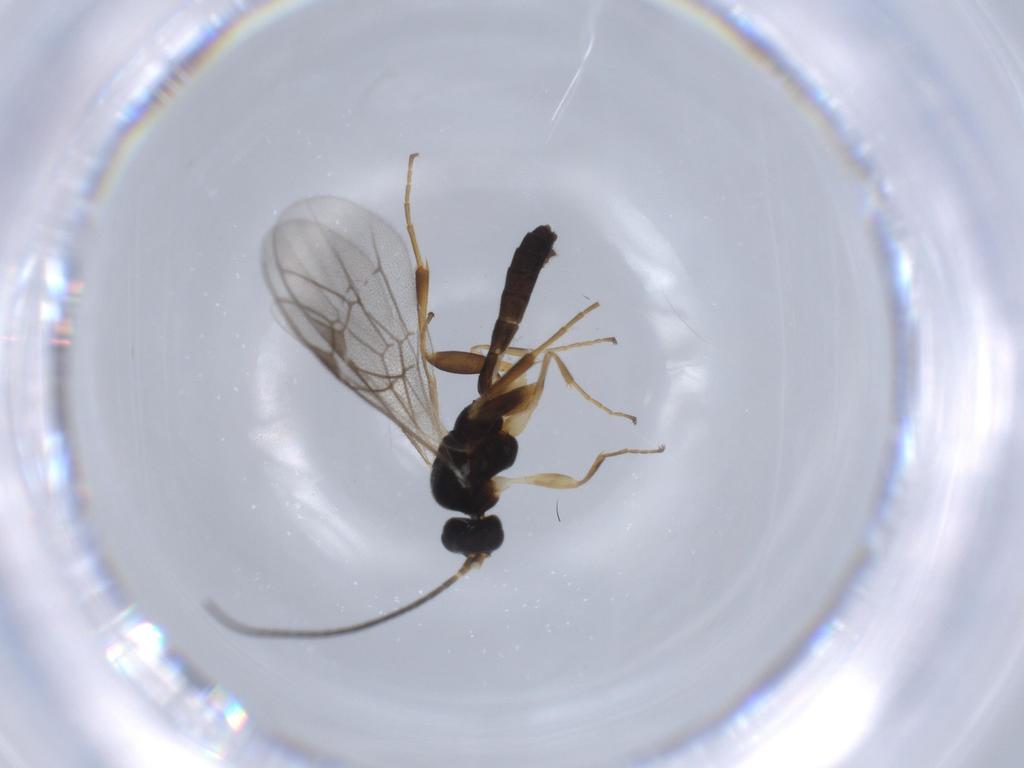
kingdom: Animalia
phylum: Arthropoda
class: Insecta
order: Hymenoptera
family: Ichneumonidae
